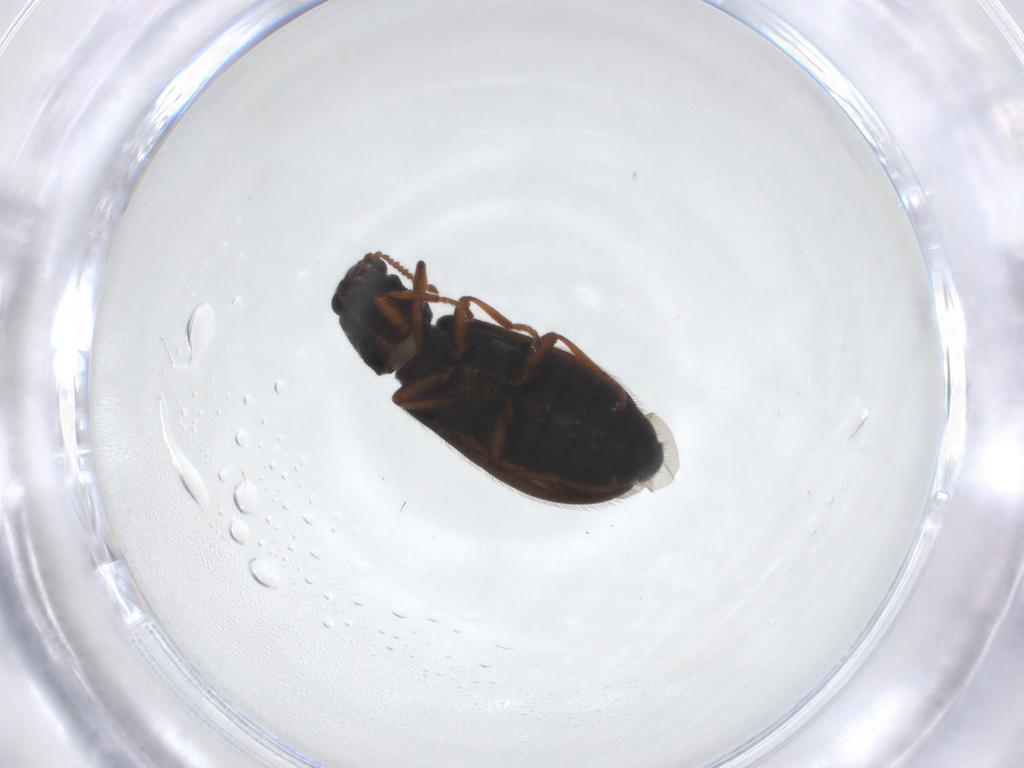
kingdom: Animalia
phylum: Arthropoda
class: Insecta
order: Coleoptera
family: Melyridae
